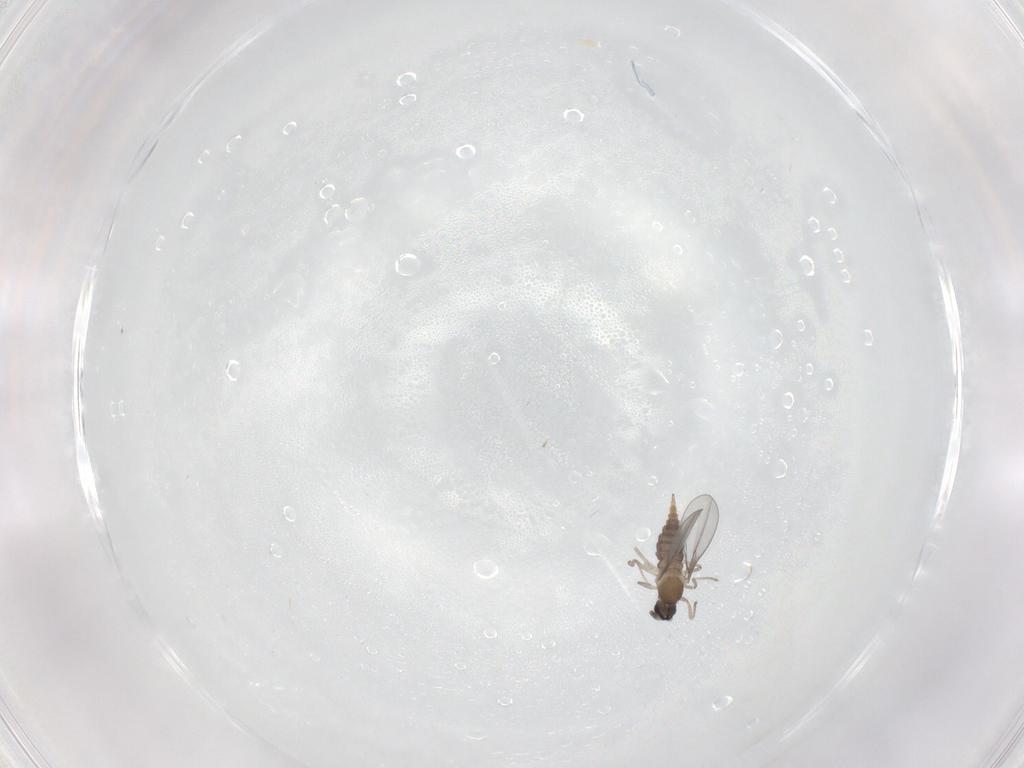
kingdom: Animalia
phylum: Arthropoda
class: Insecta
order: Diptera
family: Cecidomyiidae
